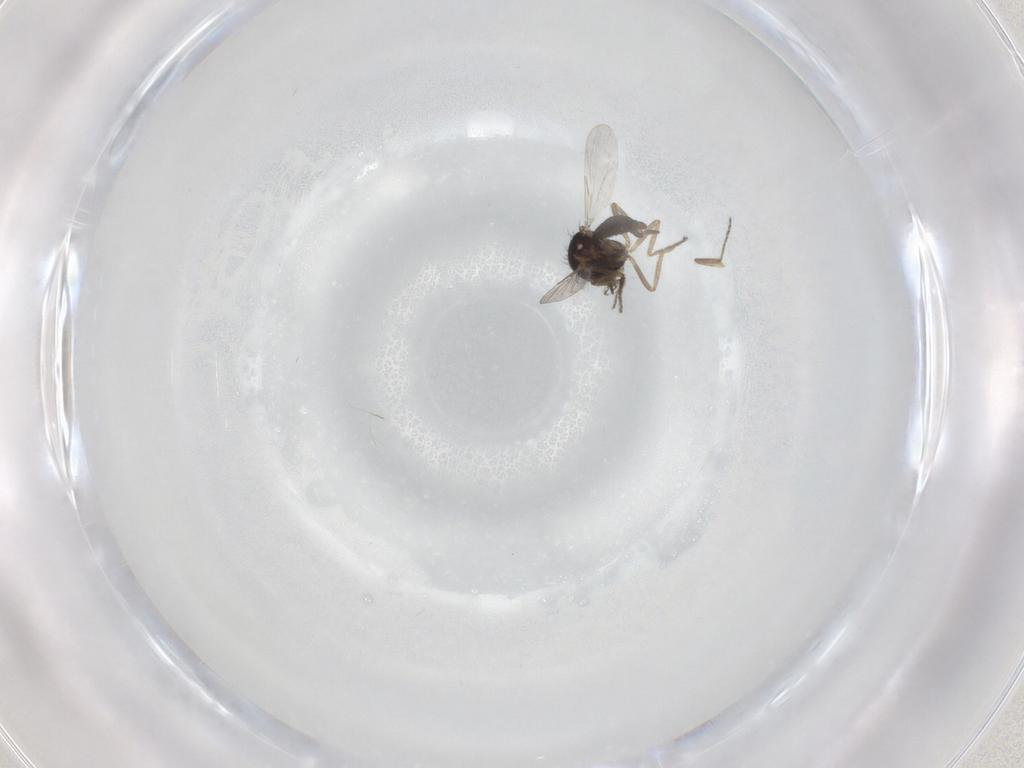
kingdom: Animalia
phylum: Arthropoda
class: Insecta
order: Diptera
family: Ceratopogonidae
